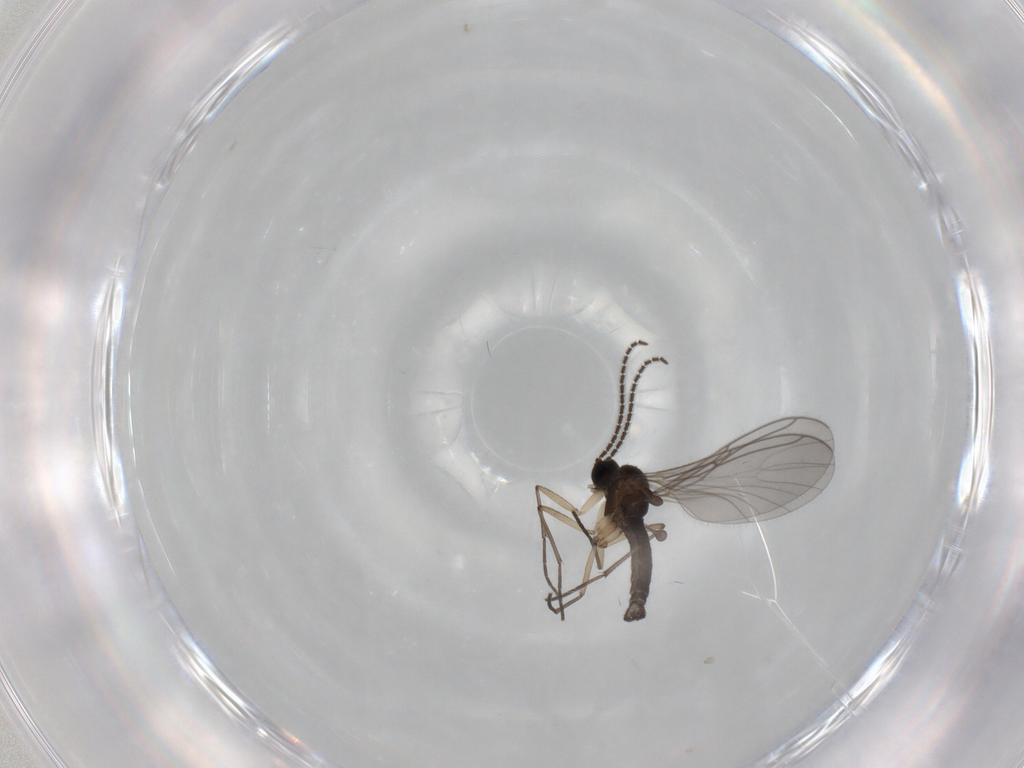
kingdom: Animalia
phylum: Arthropoda
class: Insecta
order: Diptera
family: Sciaridae
